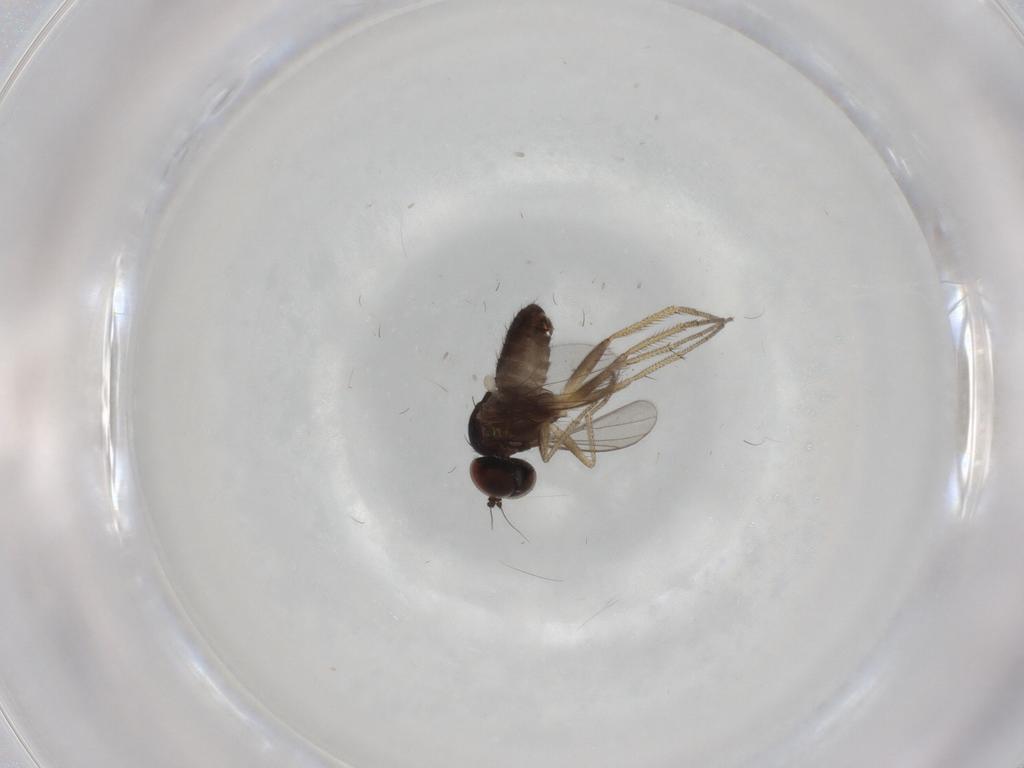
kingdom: Animalia
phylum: Arthropoda
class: Insecta
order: Diptera
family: Dolichopodidae
